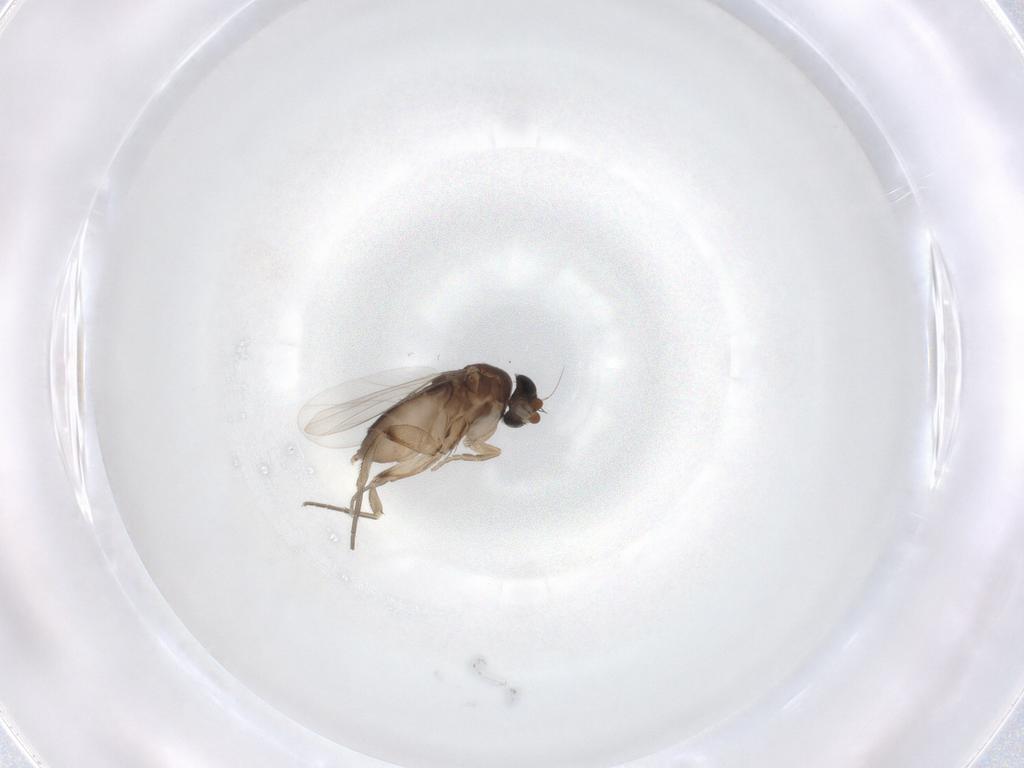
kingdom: Animalia
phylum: Arthropoda
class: Insecta
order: Diptera
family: Phoridae
